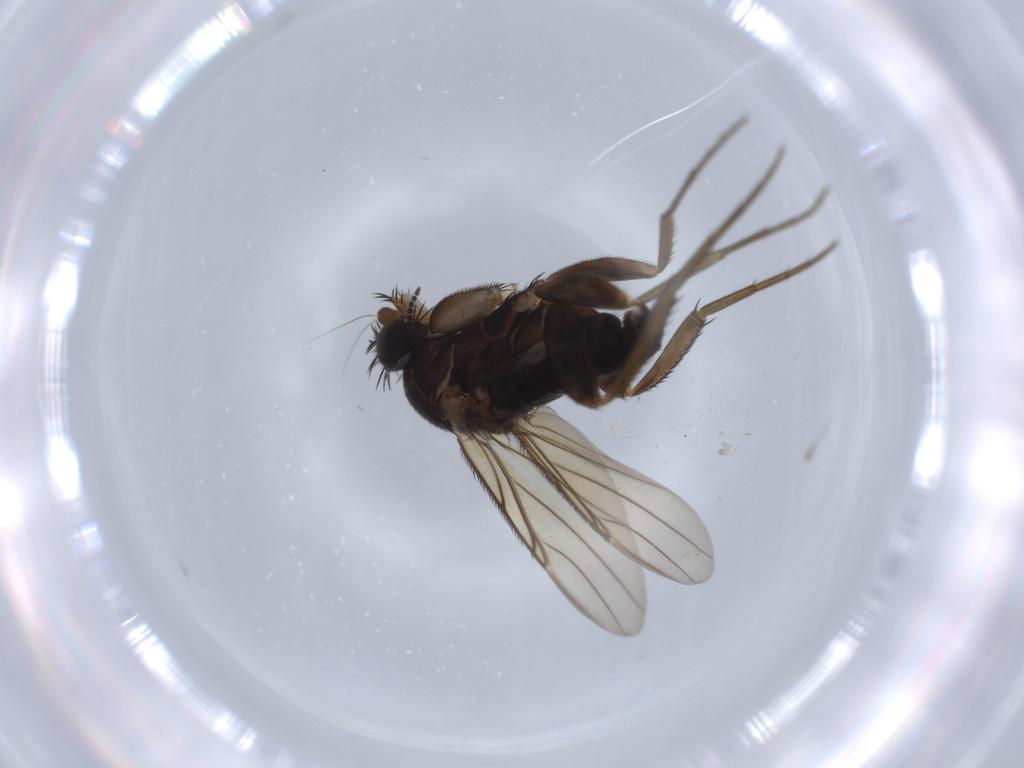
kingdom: Animalia
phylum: Arthropoda
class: Insecta
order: Diptera
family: Phoridae
